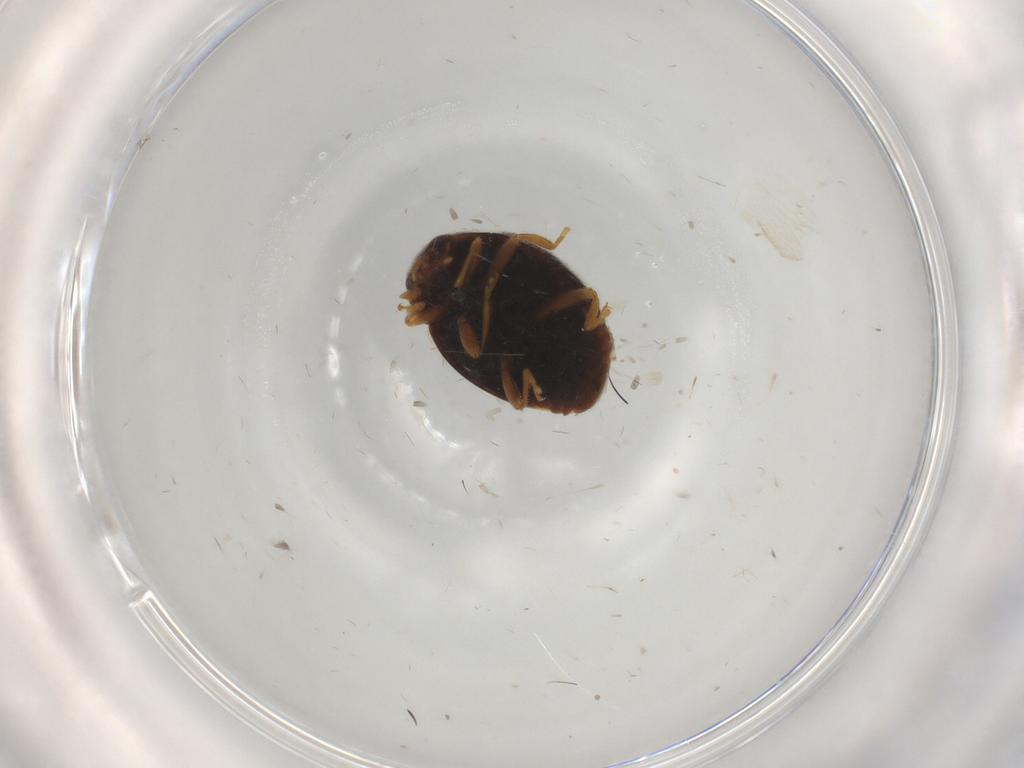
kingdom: Animalia
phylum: Arthropoda
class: Insecta
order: Coleoptera
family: Coccinellidae
